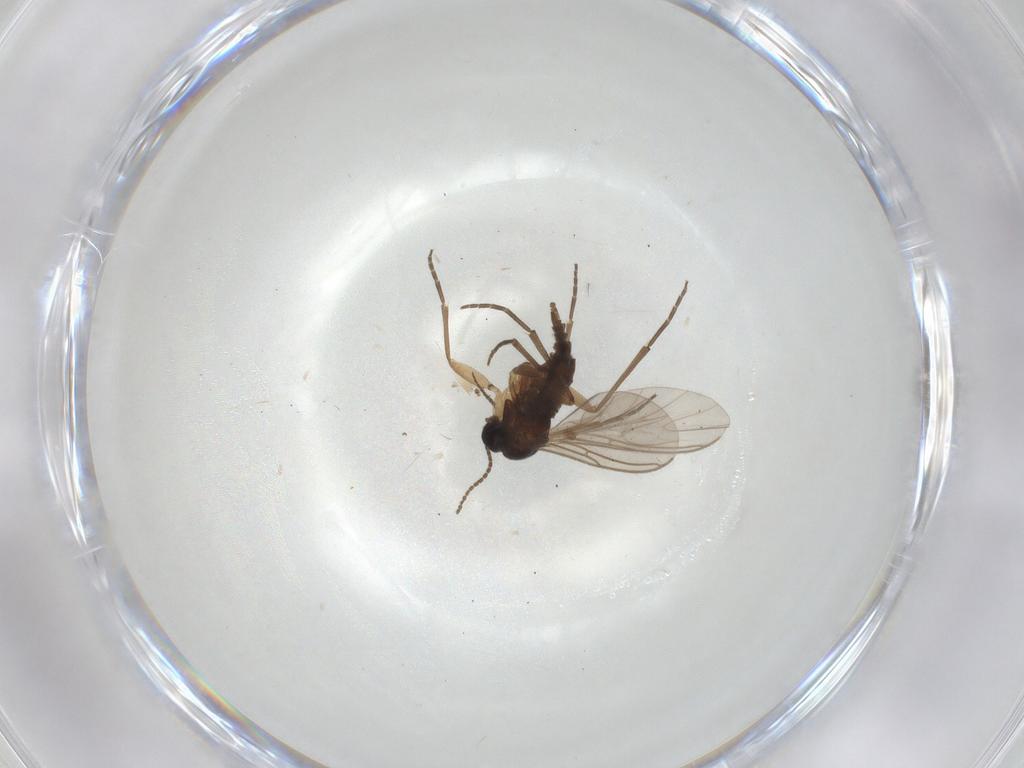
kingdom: Animalia
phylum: Arthropoda
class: Insecta
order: Diptera
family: Sciaridae
